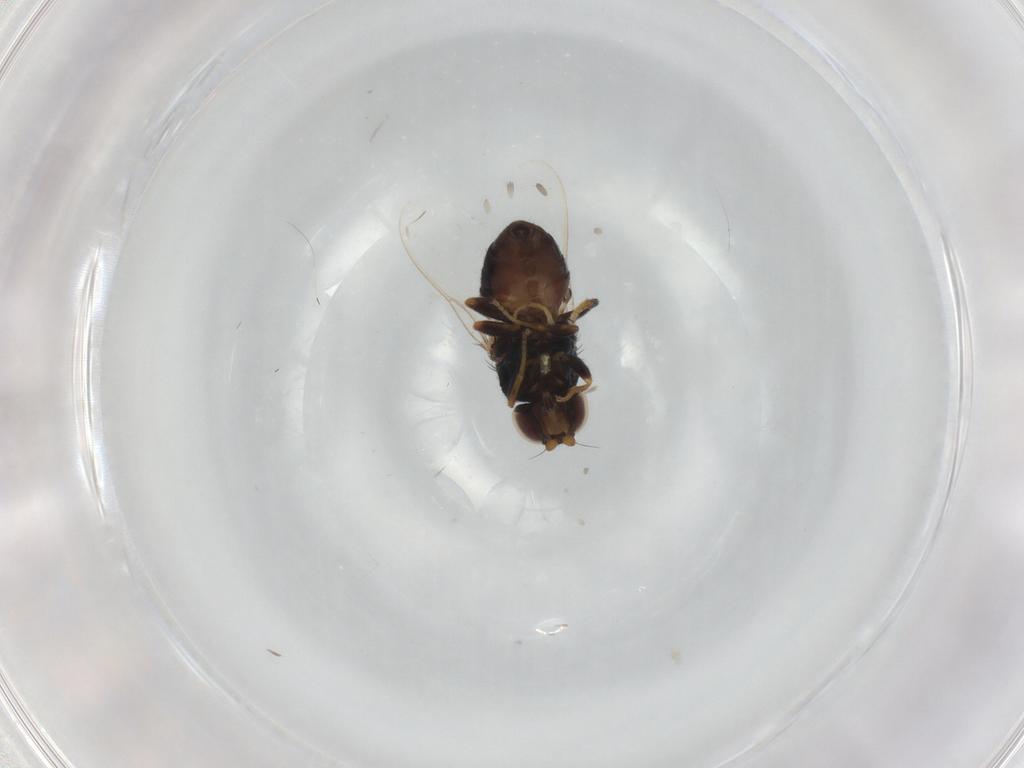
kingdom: Animalia
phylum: Arthropoda
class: Insecta
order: Diptera
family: Chloropidae
